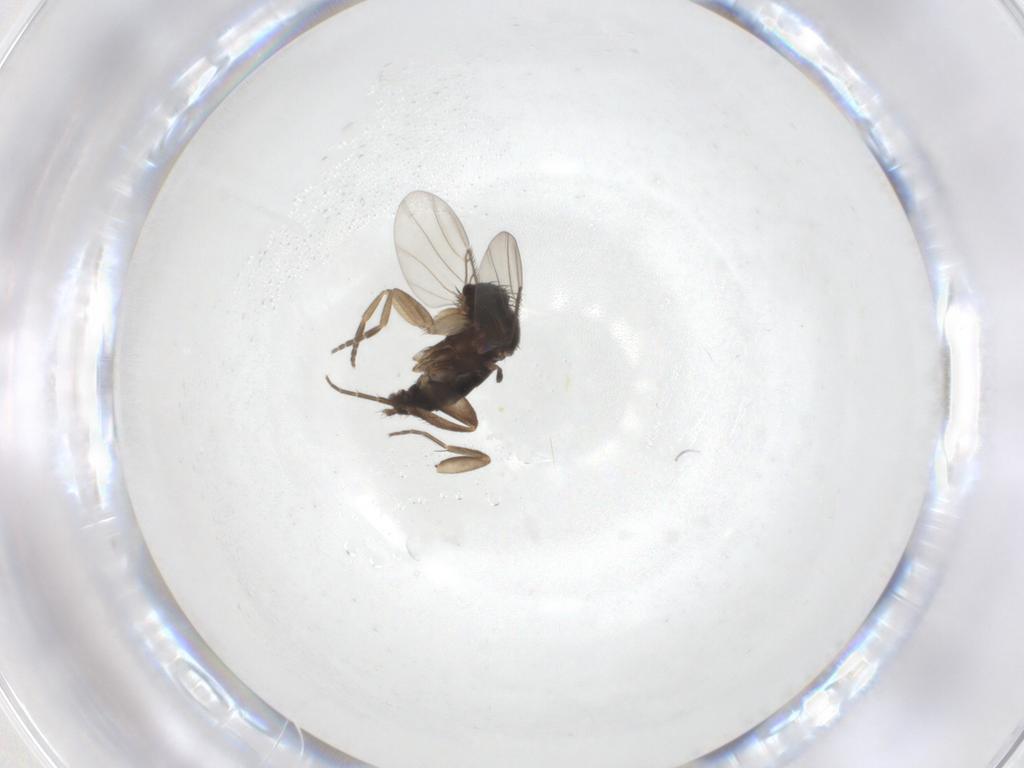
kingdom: Animalia
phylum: Arthropoda
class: Insecta
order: Diptera
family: Phoridae
